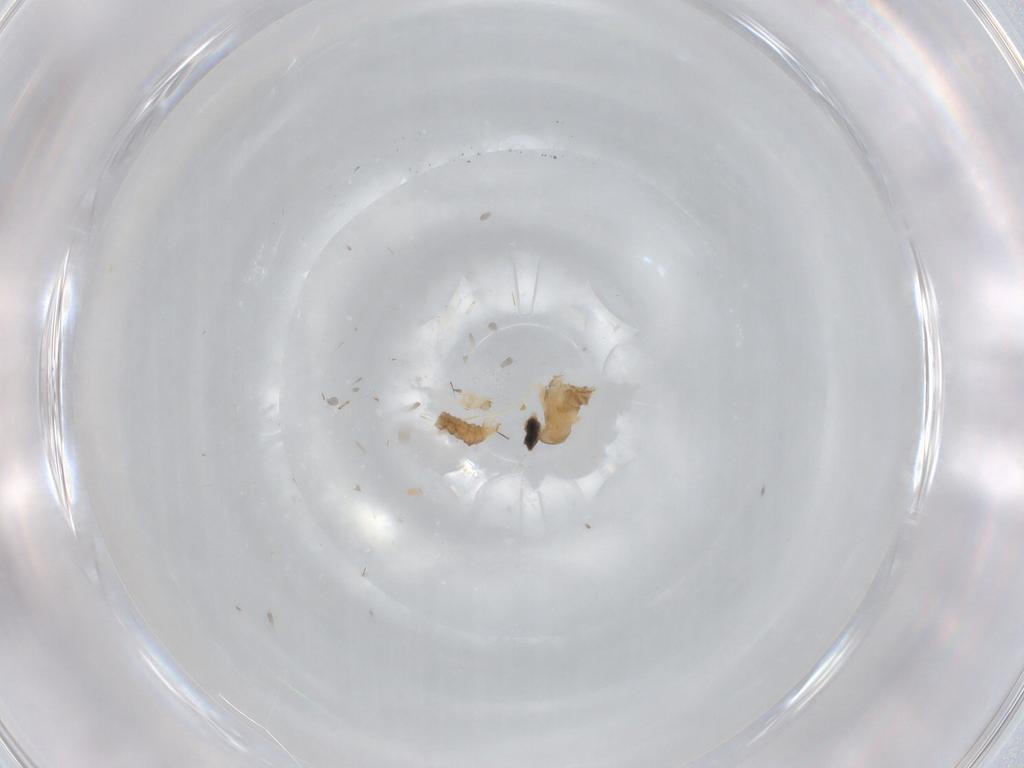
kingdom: Animalia
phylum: Arthropoda
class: Insecta
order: Diptera
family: Cecidomyiidae
